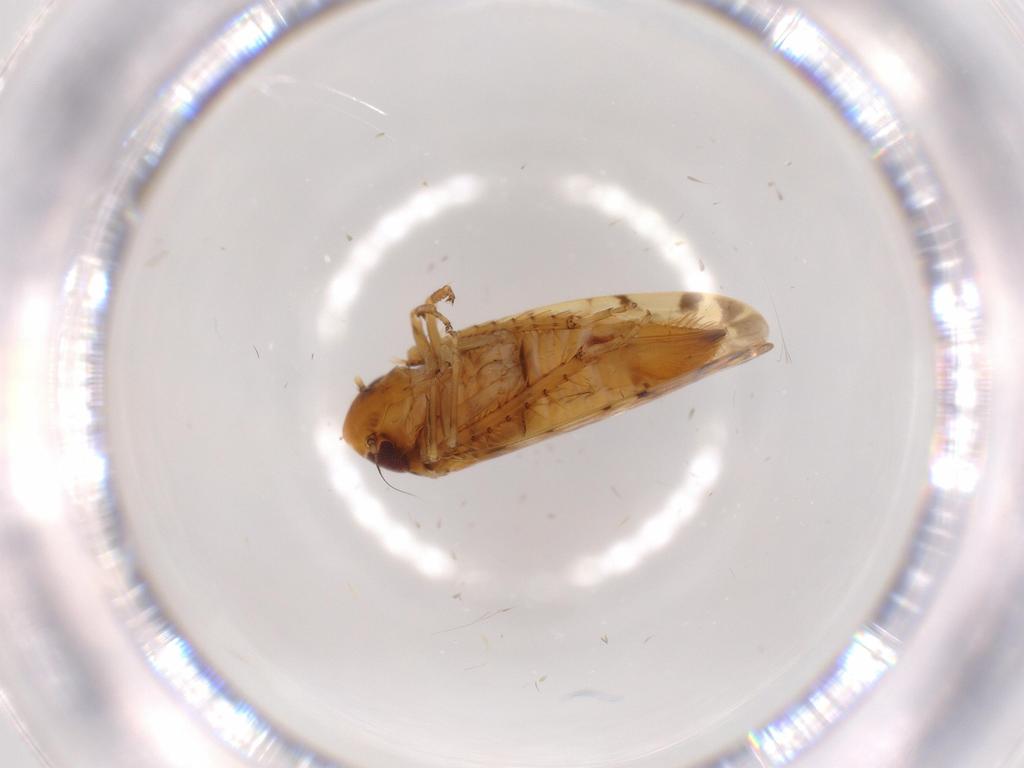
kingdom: Animalia
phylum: Arthropoda
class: Insecta
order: Hemiptera
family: Cicadellidae
